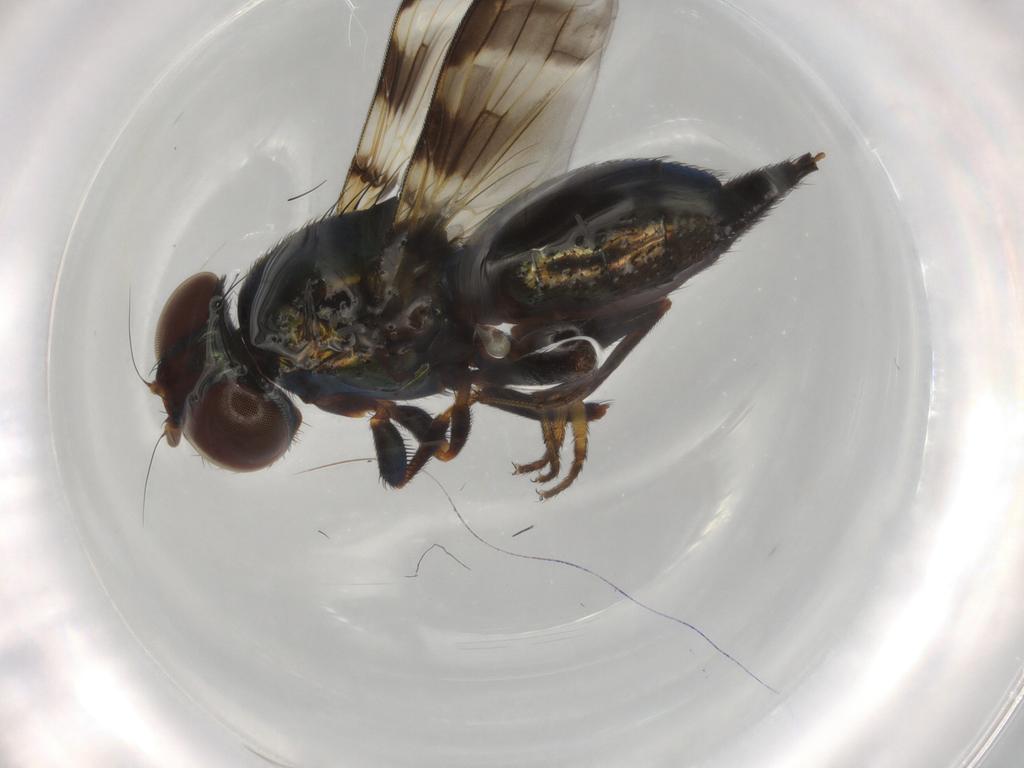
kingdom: Animalia
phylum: Arthropoda
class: Insecta
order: Diptera
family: Ulidiidae
